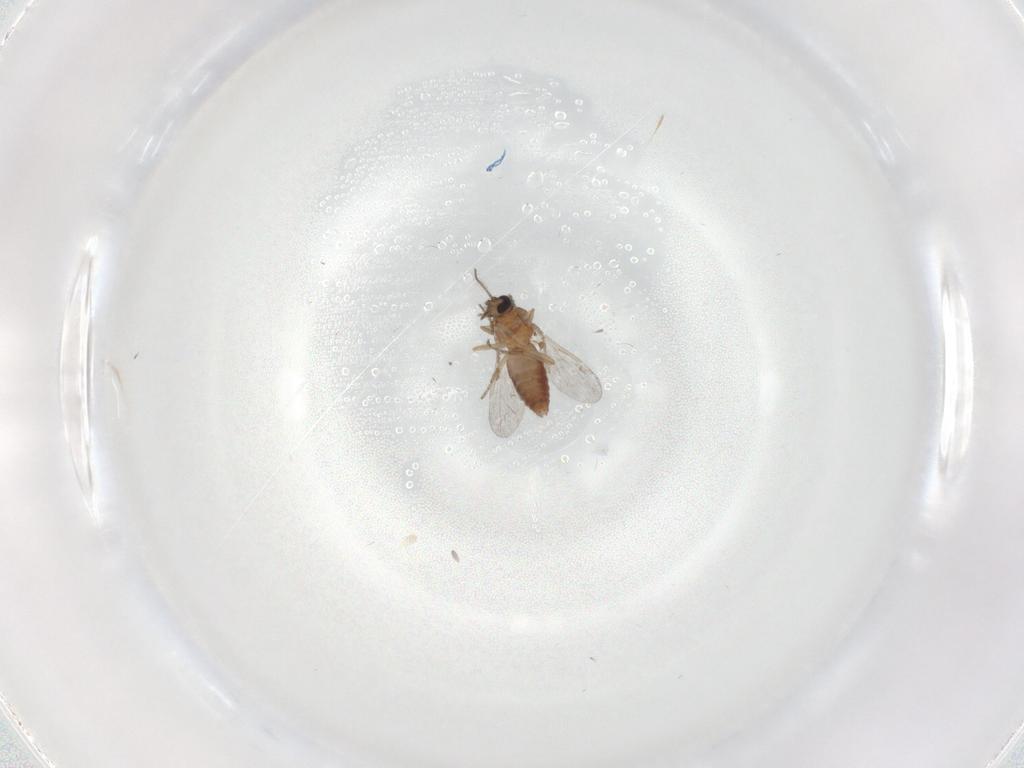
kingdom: Animalia
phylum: Arthropoda
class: Insecta
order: Diptera
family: Ceratopogonidae
